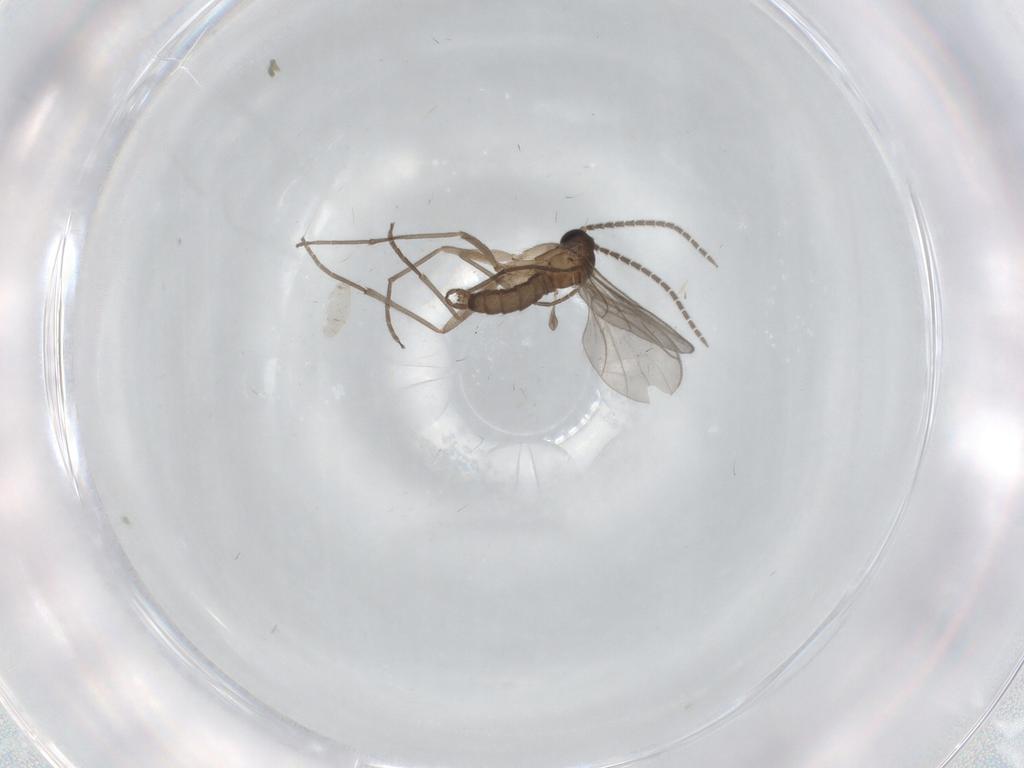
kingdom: Animalia
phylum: Arthropoda
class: Insecta
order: Diptera
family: Sciaridae
